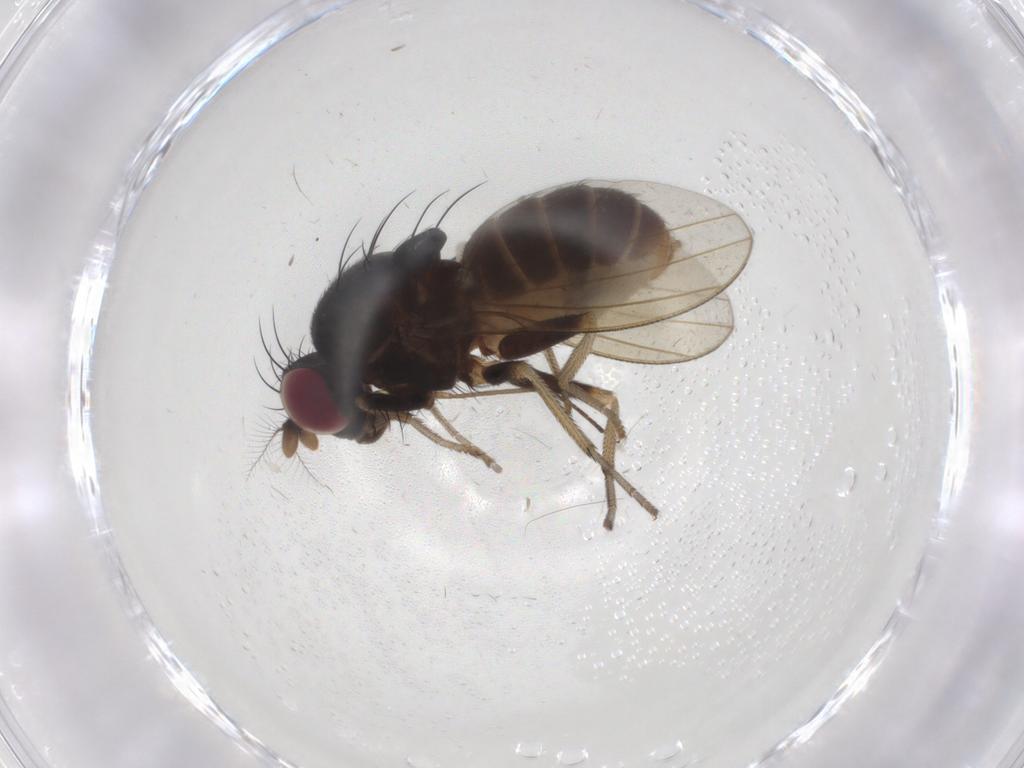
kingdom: Animalia
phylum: Arthropoda
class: Insecta
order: Diptera
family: Lauxaniidae
